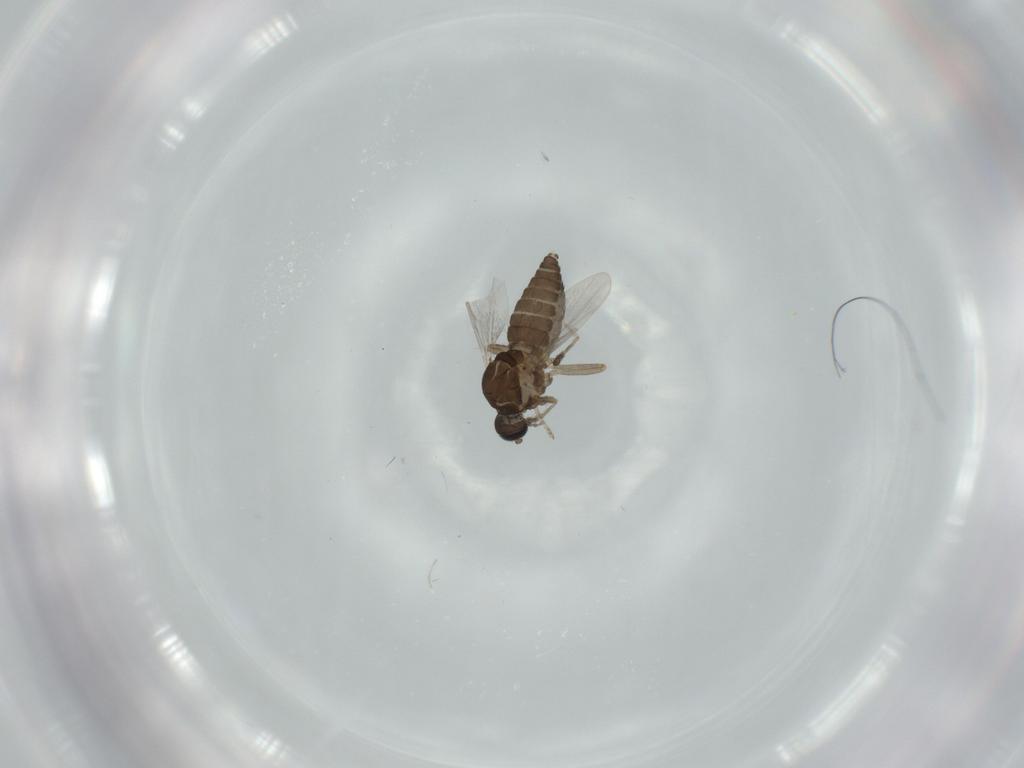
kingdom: Animalia
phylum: Arthropoda
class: Insecta
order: Diptera
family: Ceratopogonidae
